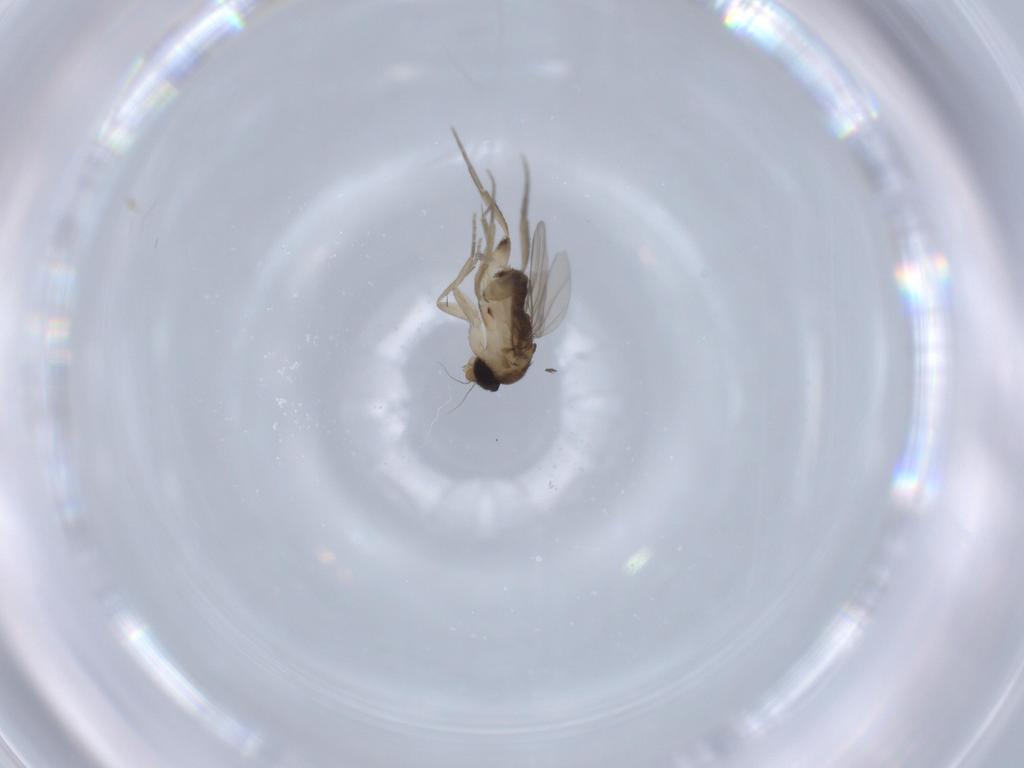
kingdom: Animalia
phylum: Arthropoda
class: Insecta
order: Diptera
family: Phoridae
